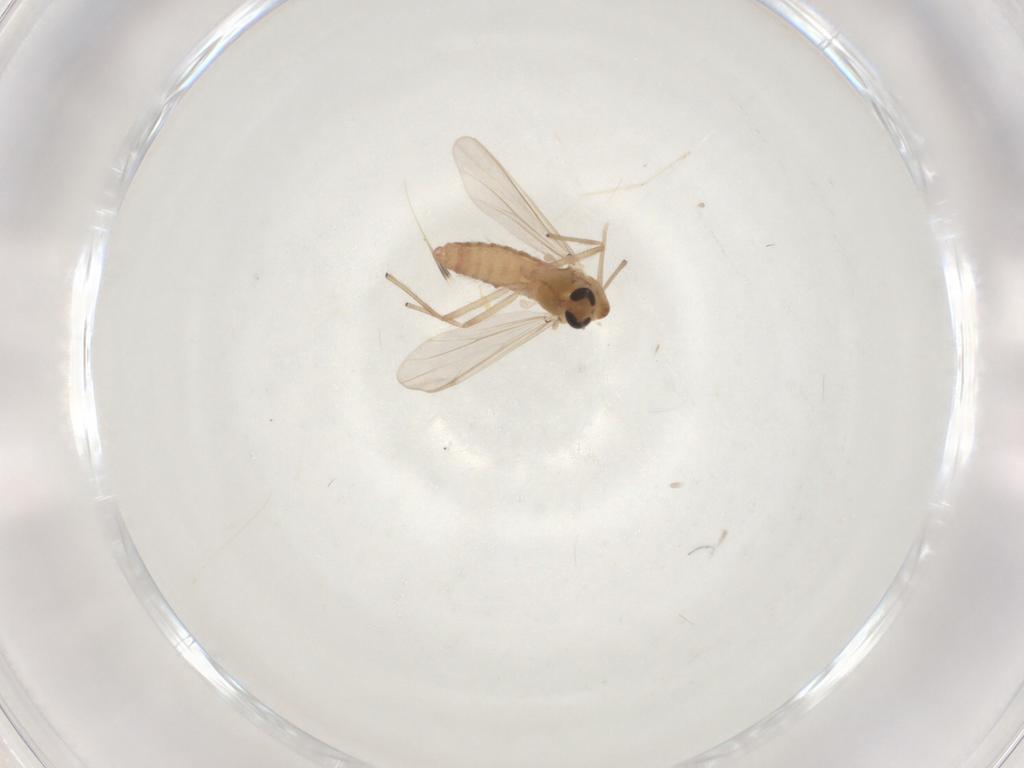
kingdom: Animalia
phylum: Arthropoda
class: Insecta
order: Diptera
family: Chironomidae
